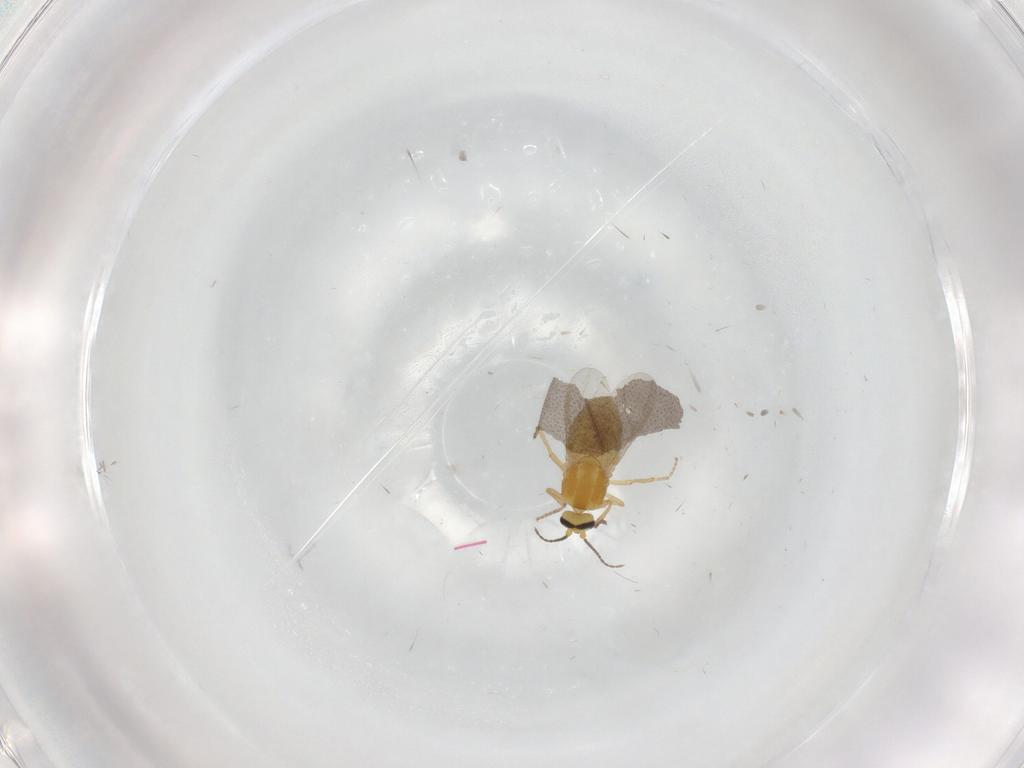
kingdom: Animalia
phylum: Arthropoda
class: Insecta
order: Diptera
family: Ceratopogonidae
